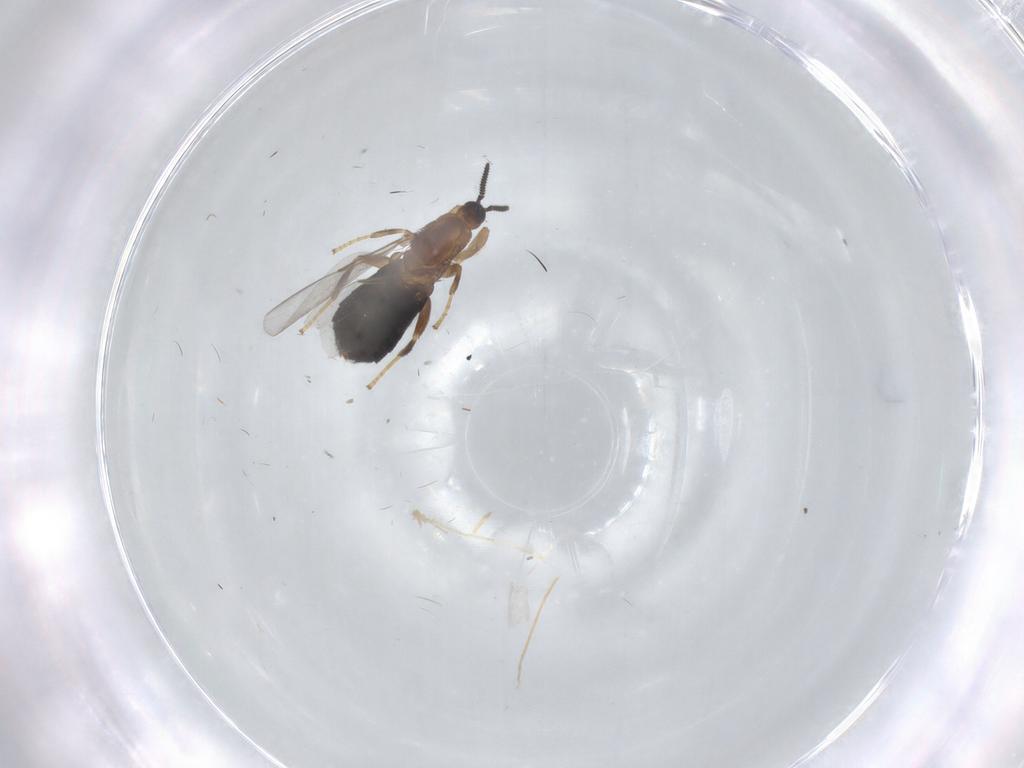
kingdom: Animalia
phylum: Arthropoda
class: Insecta
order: Diptera
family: Scatopsidae
